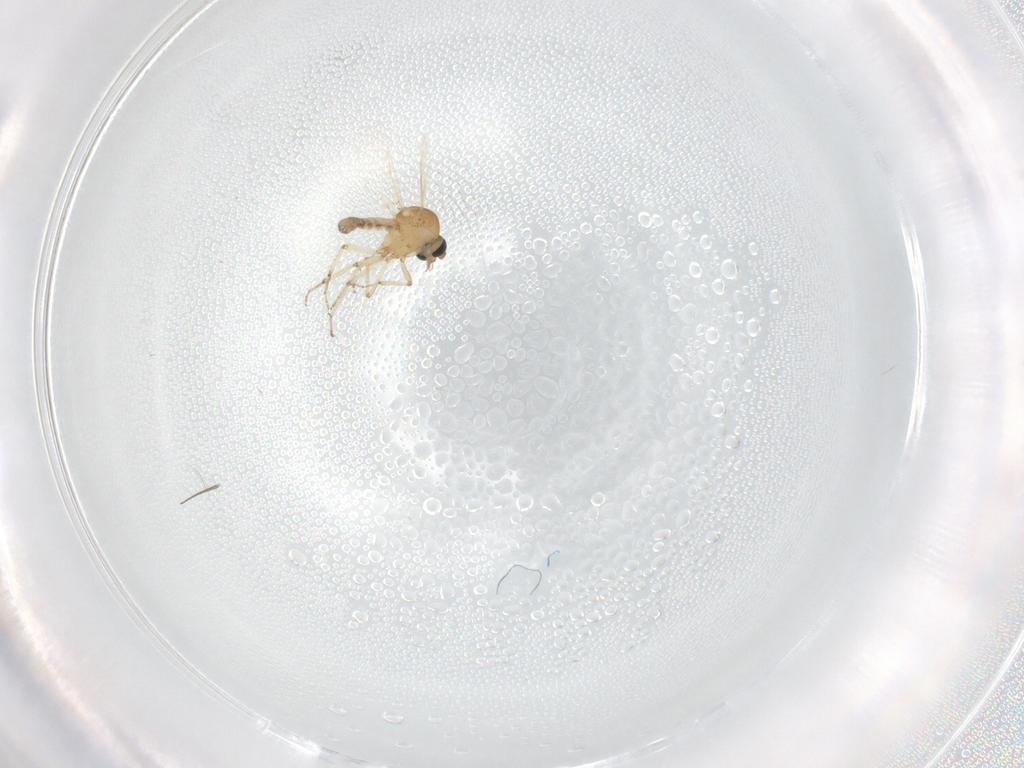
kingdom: Animalia
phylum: Arthropoda
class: Insecta
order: Diptera
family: Ceratopogonidae
